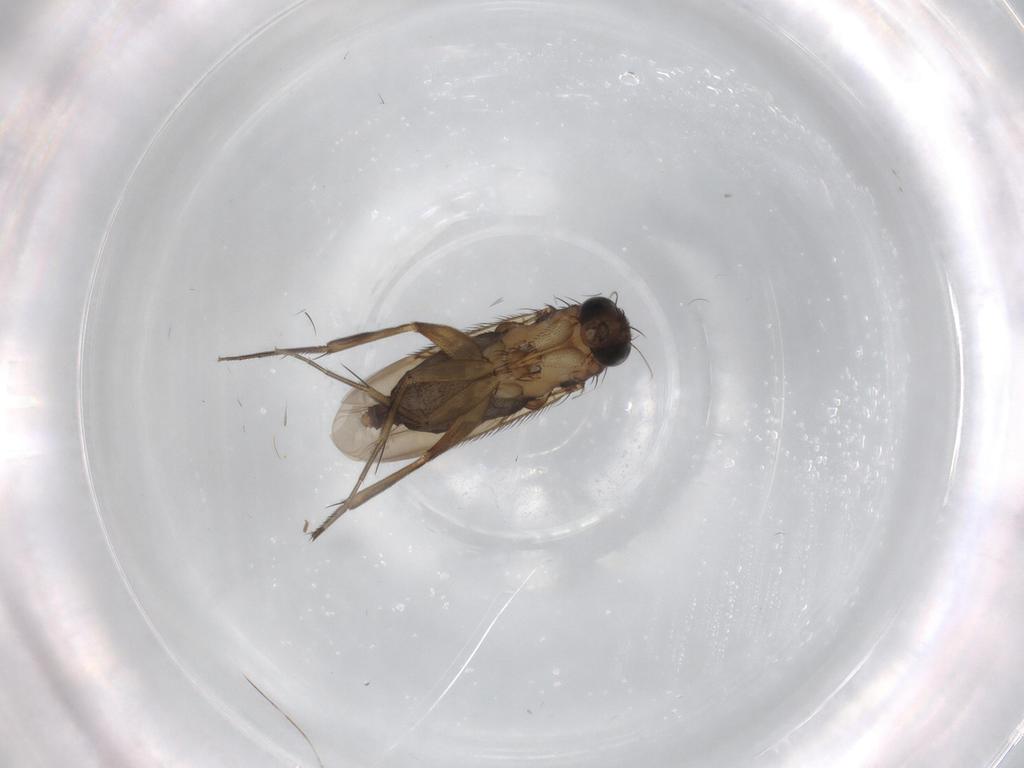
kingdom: Animalia
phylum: Arthropoda
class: Insecta
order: Diptera
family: Phoridae
